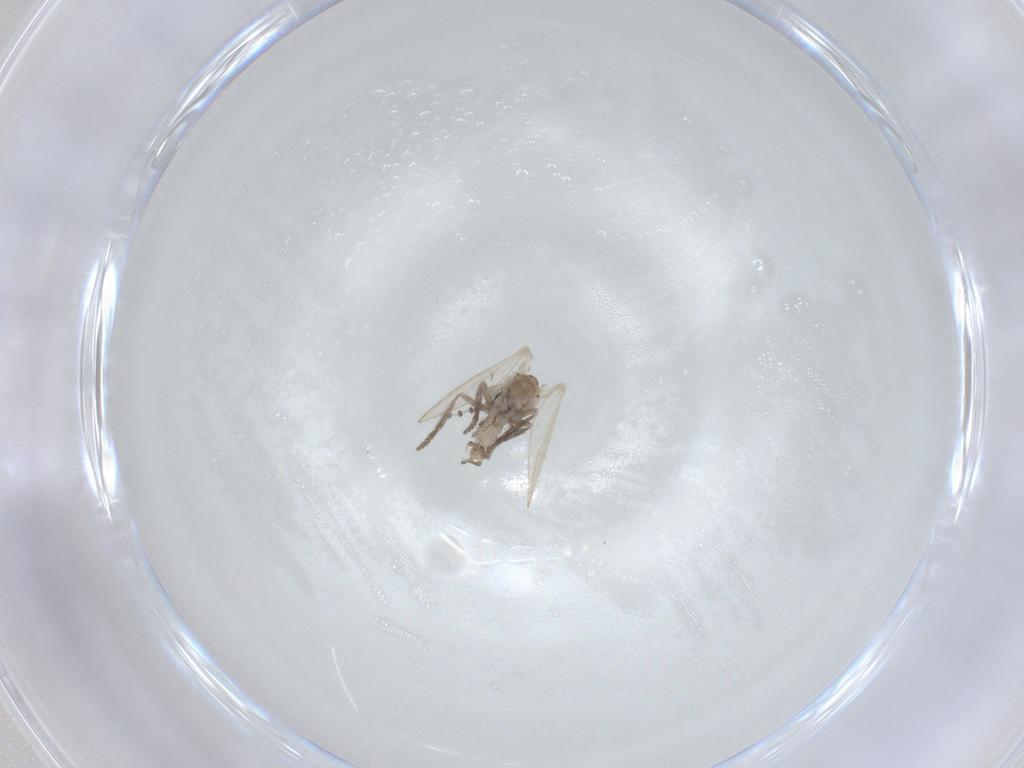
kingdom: Animalia
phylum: Arthropoda
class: Insecta
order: Diptera
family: Psychodidae
